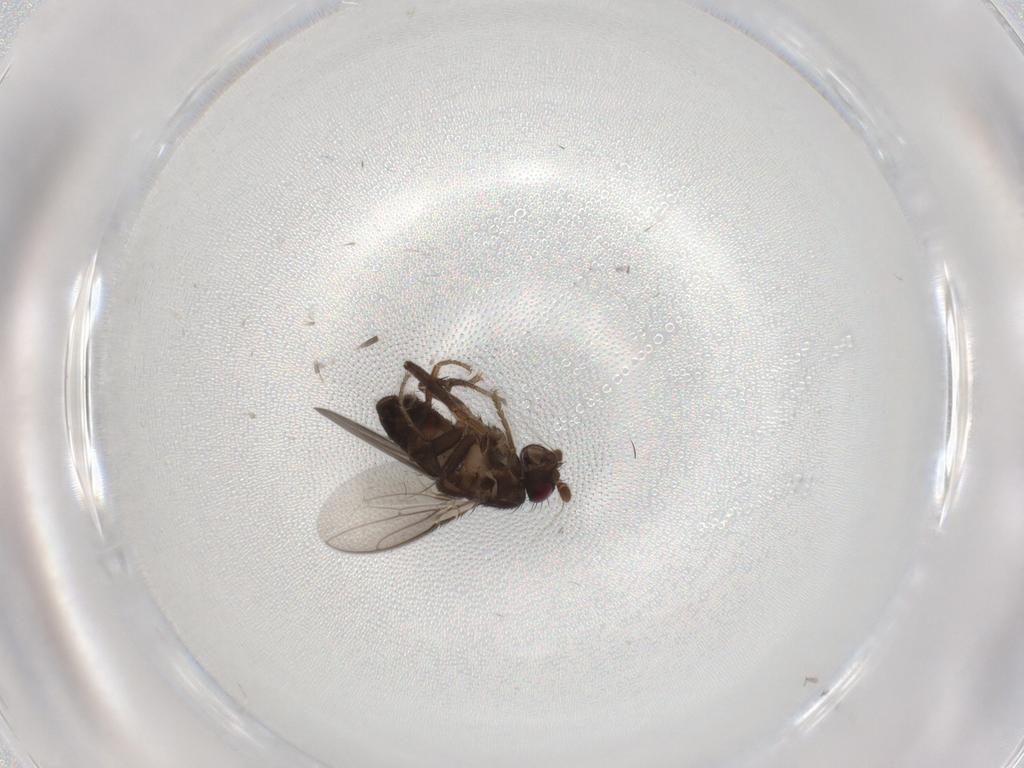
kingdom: Animalia
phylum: Arthropoda
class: Insecta
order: Diptera
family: Sphaeroceridae
